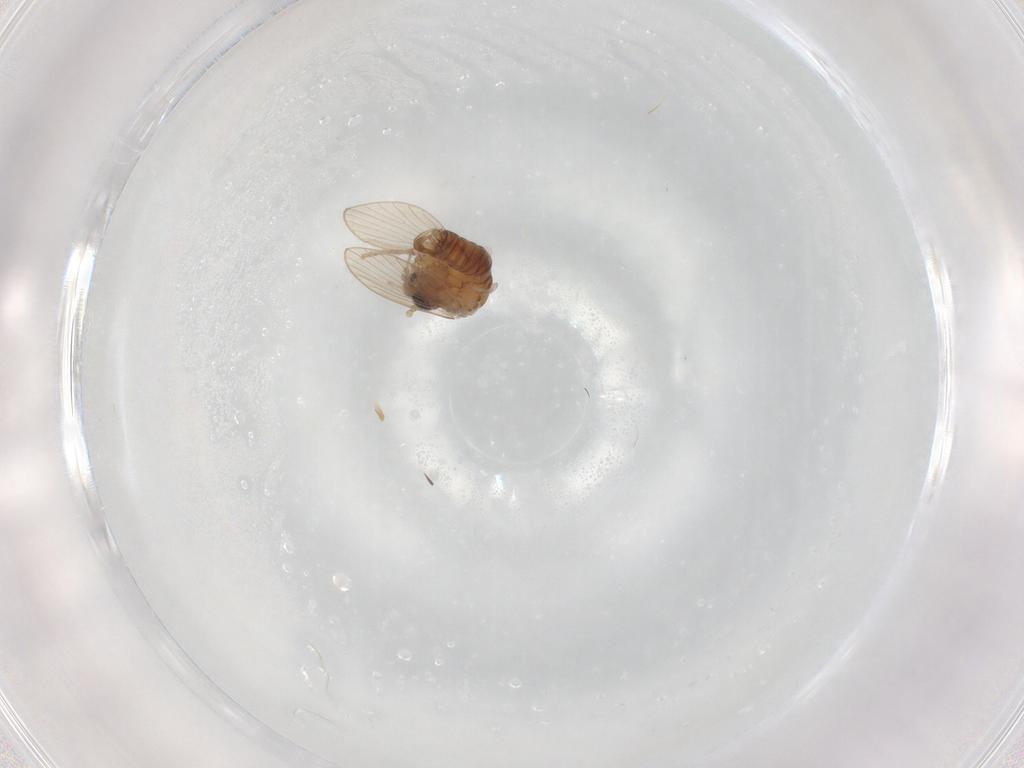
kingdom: Animalia
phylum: Arthropoda
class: Insecta
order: Diptera
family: Psychodidae
